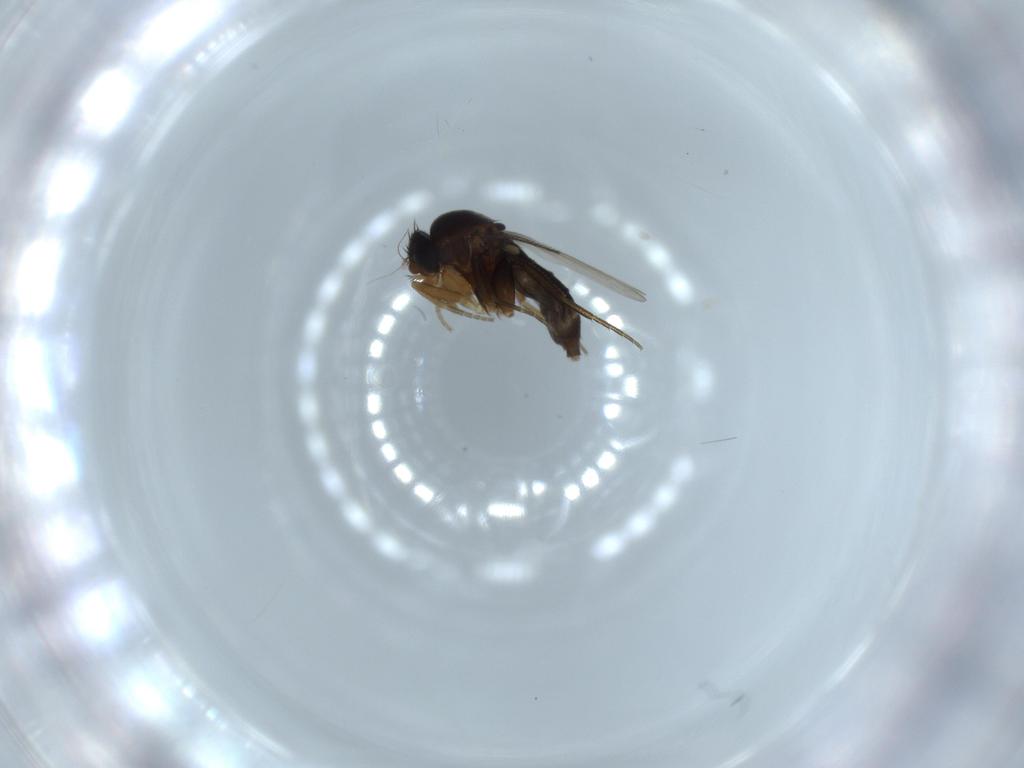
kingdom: Animalia
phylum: Arthropoda
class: Insecta
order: Diptera
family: Phoridae
